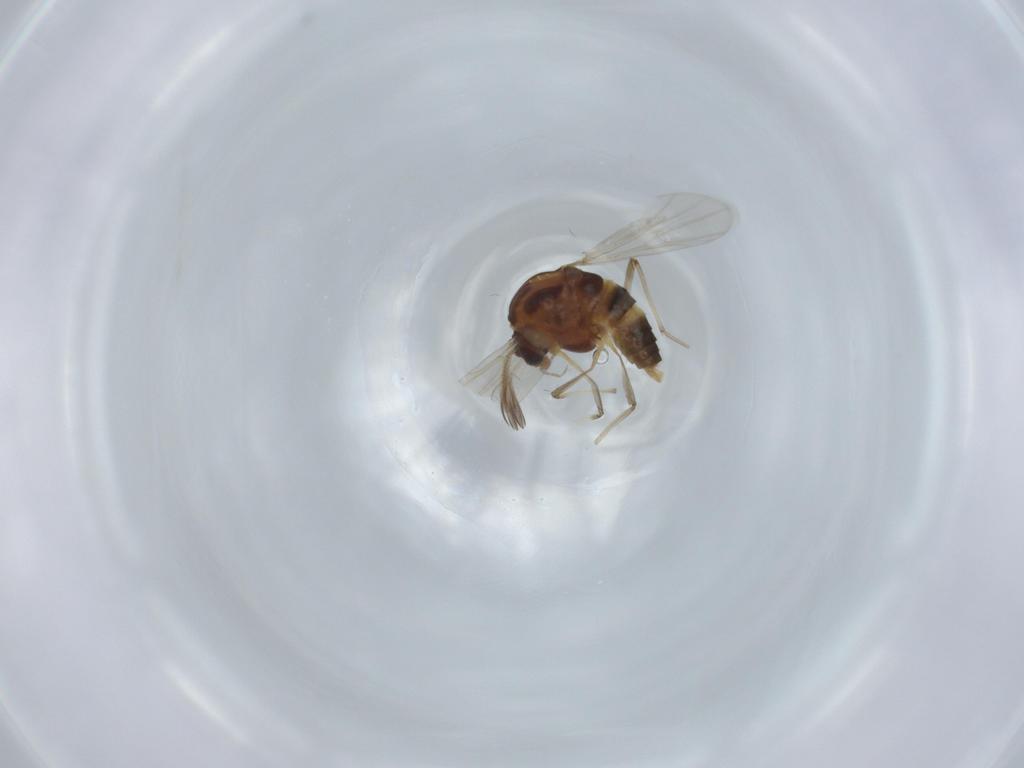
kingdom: Animalia
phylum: Arthropoda
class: Insecta
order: Diptera
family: Chironomidae
